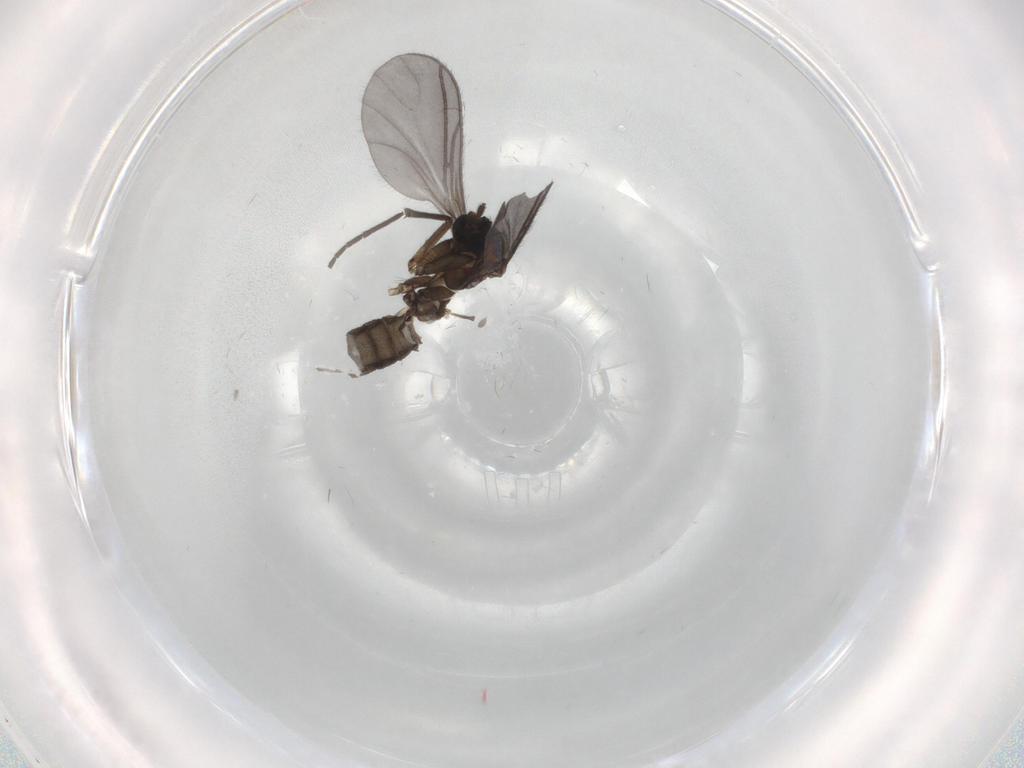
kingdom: Animalia
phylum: Arthropoda
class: Insecta
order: Diptera
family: Sciaridae
